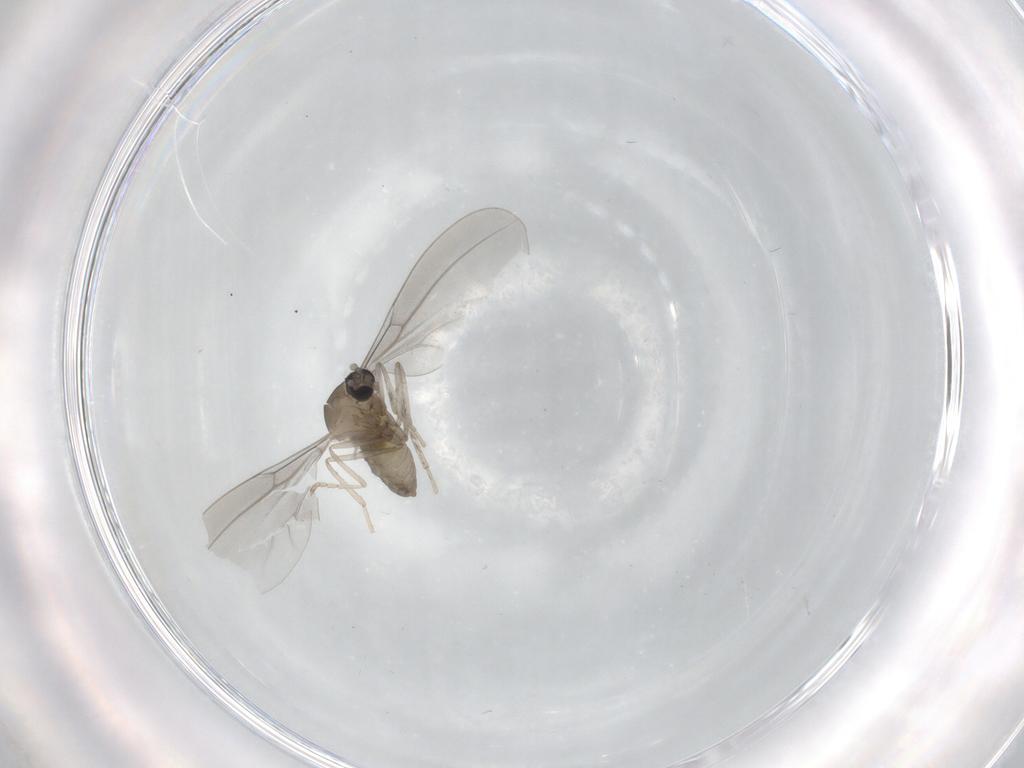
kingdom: Animalia
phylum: Arthropoda
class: Insecta
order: Diptera
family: Cecidomyiidae
